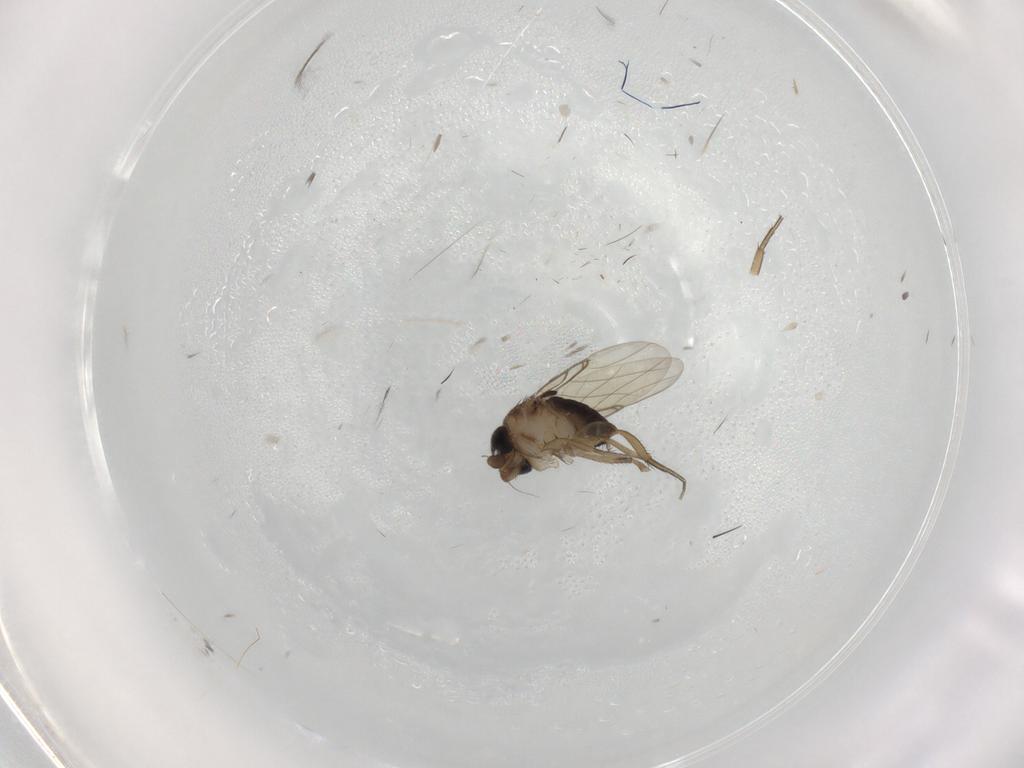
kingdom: Animalia
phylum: Arthropoda
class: Insecta
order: Diptera
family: Phoridae
